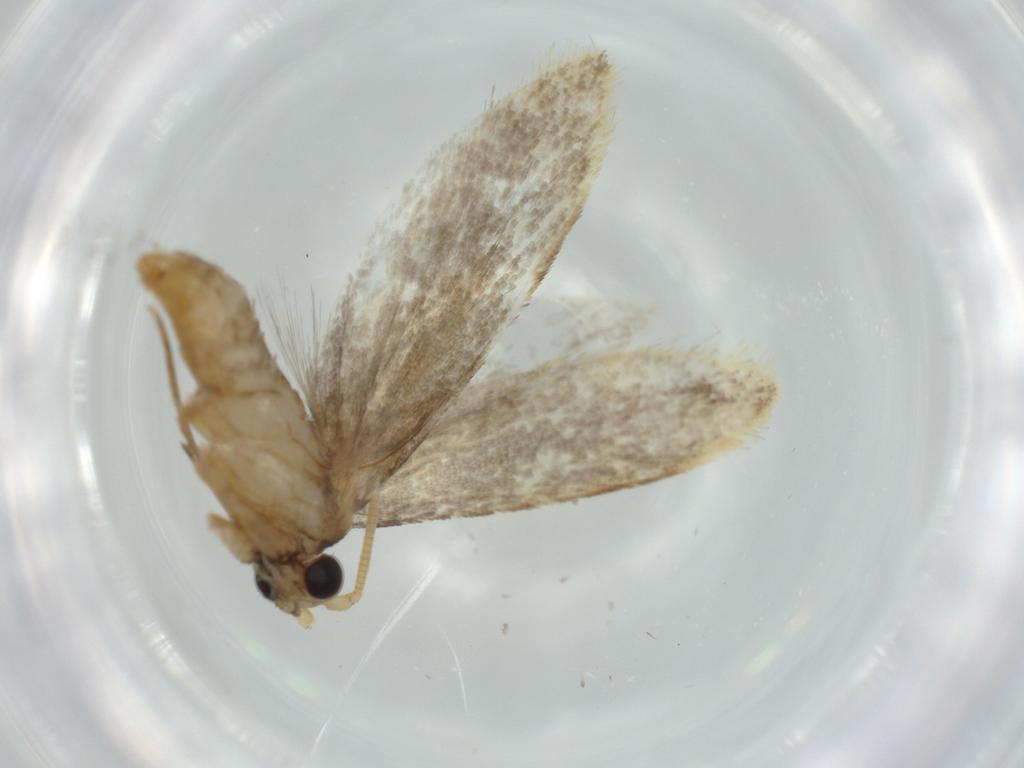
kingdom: Animalia
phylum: Arthropoda
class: Insecta
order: Lepidoptera
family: Tineidae
